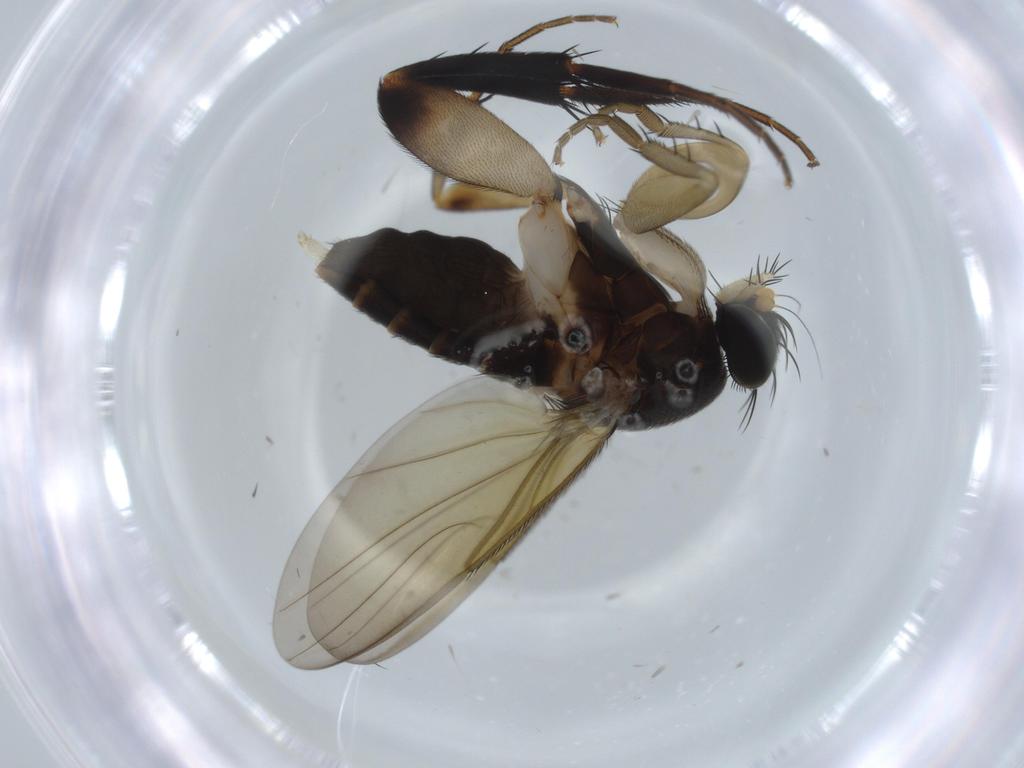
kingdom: Animalia
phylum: Arthropoda
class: Insecta
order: Diptera
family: Phoridae
